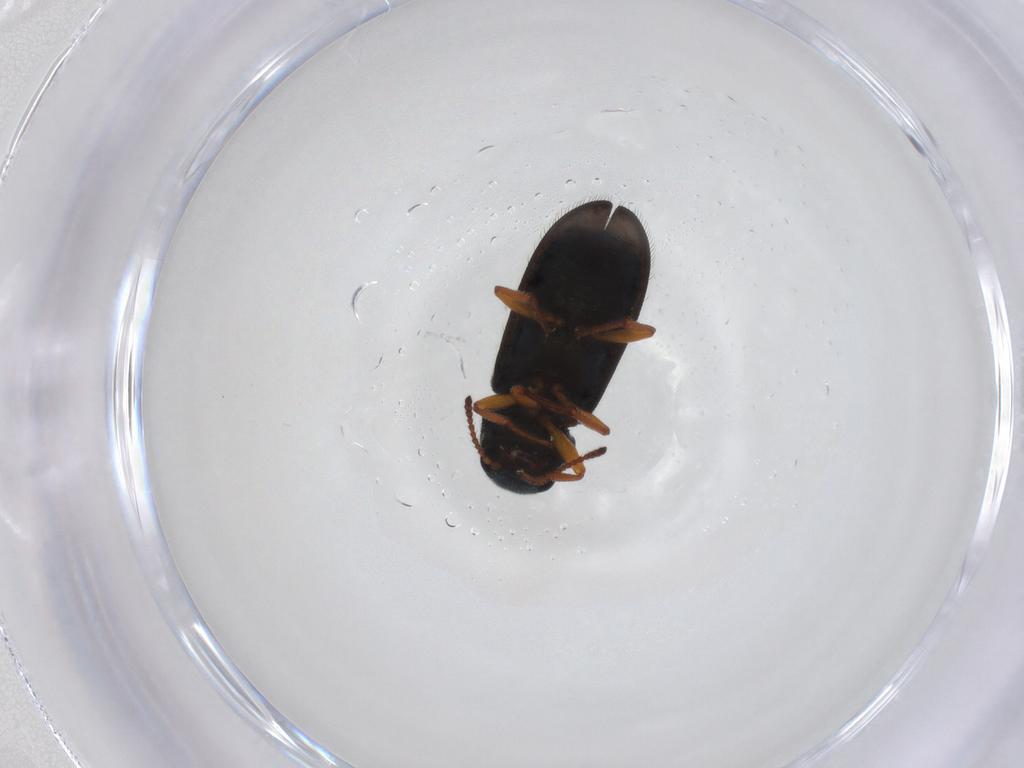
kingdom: Animalia
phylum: Arthropoda
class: Insecta
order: Coleoptera
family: Melyridae
